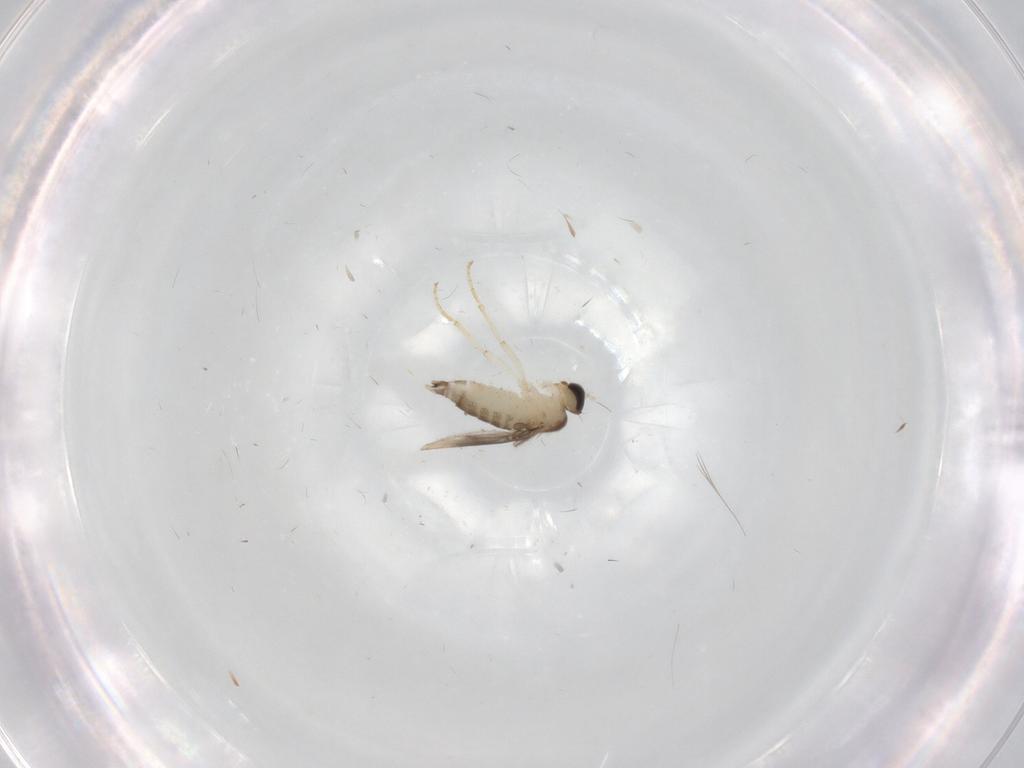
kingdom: Animalia
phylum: Arthropoda
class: Insecta
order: Diptera
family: Hybotidae
